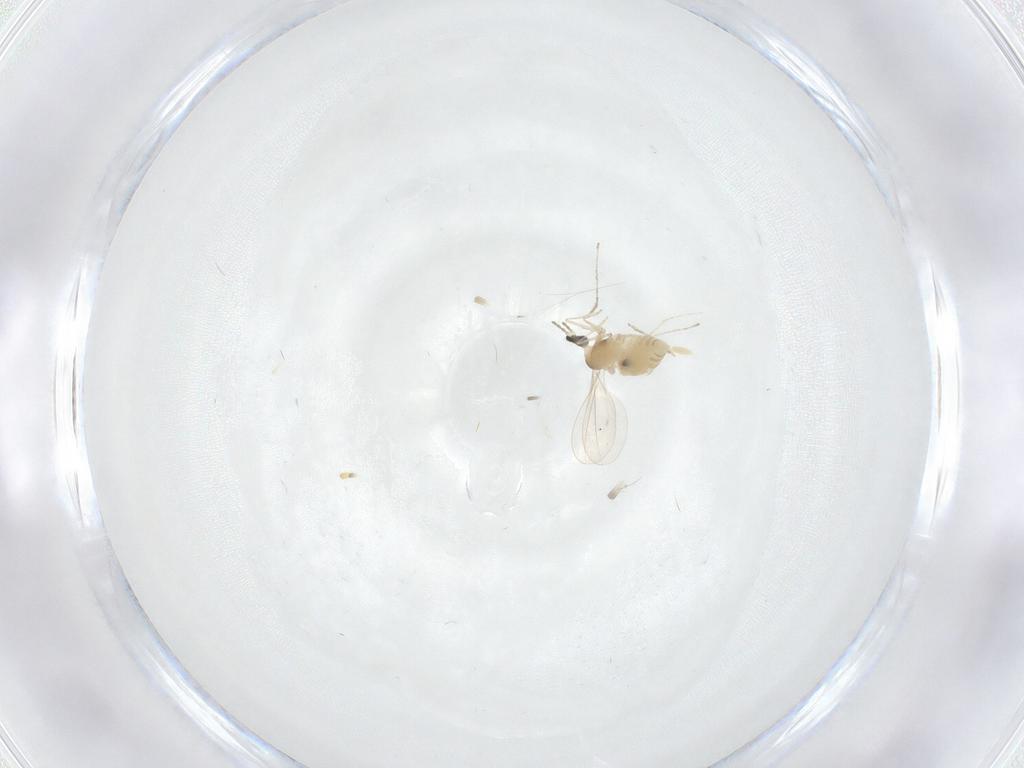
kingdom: Animalia
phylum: Arthropoda
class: Insecta
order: Diptera
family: Cecidomyiidae
